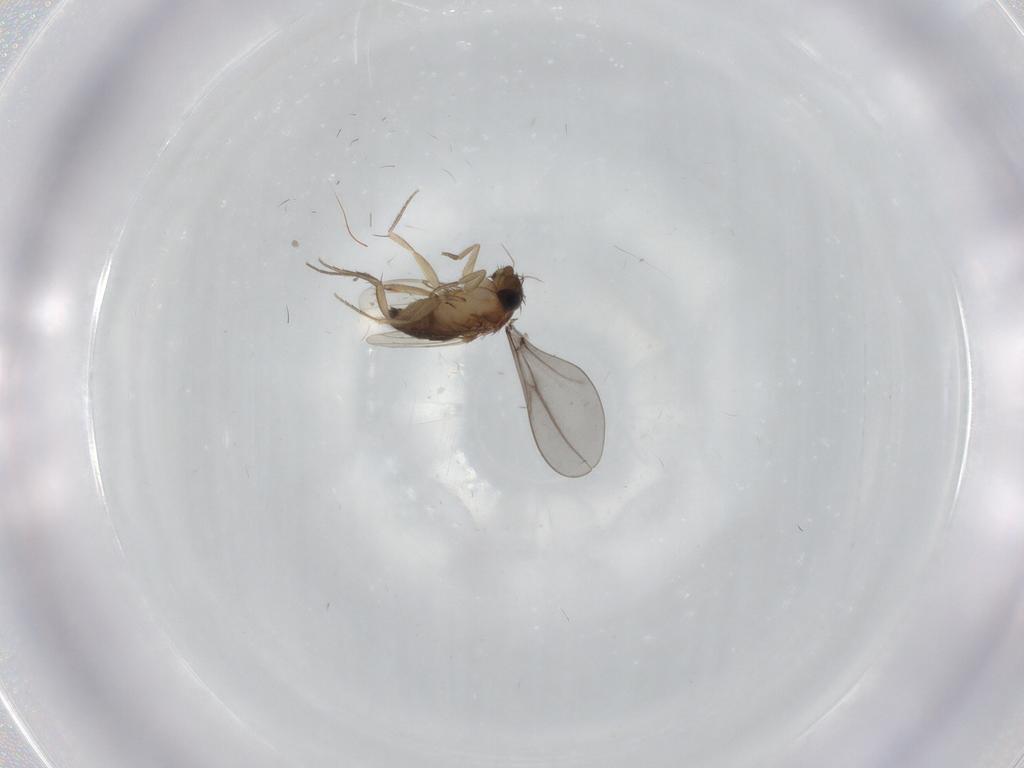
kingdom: Animalia
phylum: Arthropoda
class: Insecta
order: Diptera
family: Phoridae
